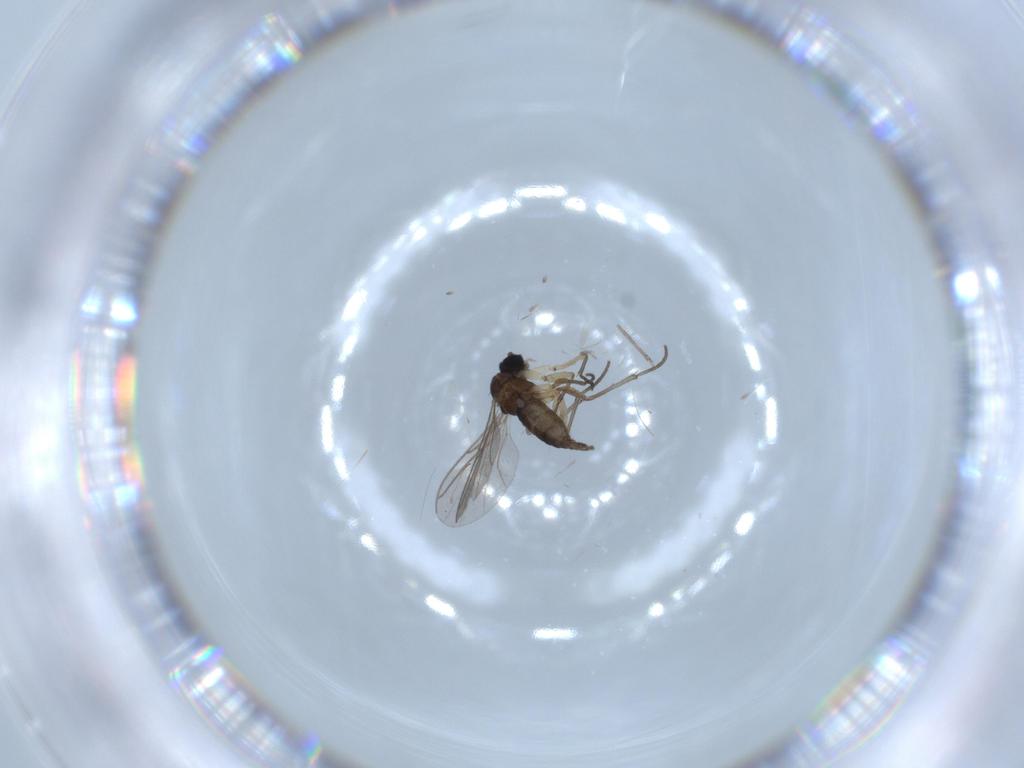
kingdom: Animalia
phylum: Arthropoda
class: Insecta
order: Diptera
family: Sciaridae
